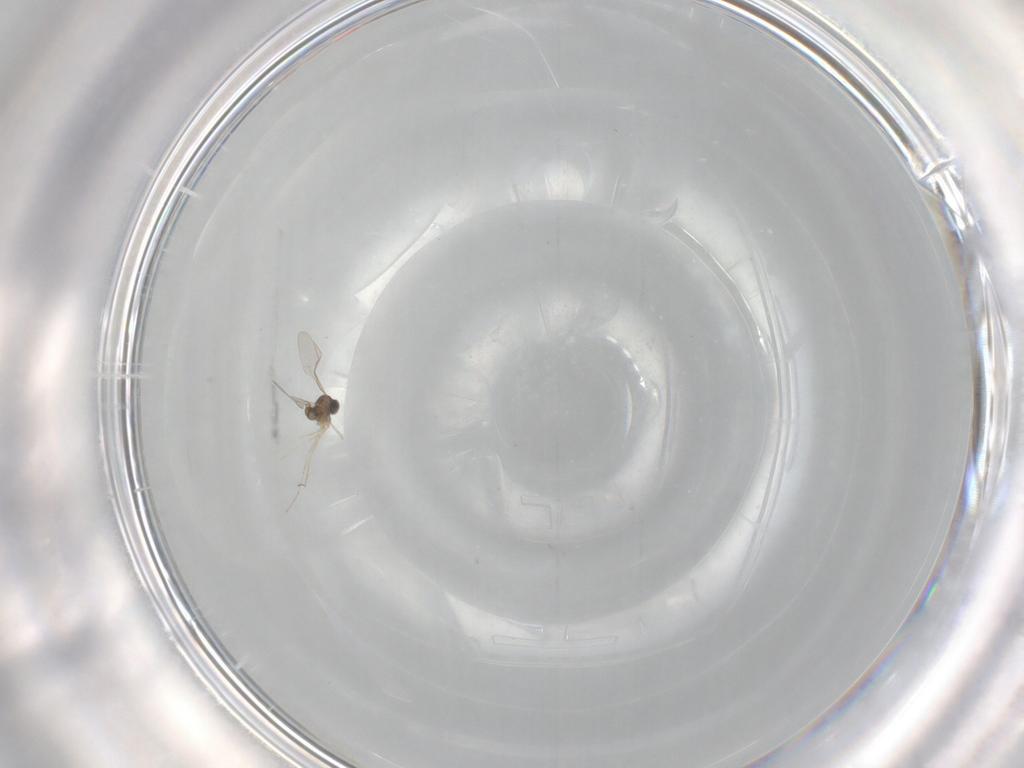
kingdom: Animalia
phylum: Arthropoda
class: Insecta
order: Diptera
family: Cecidomyiidae
